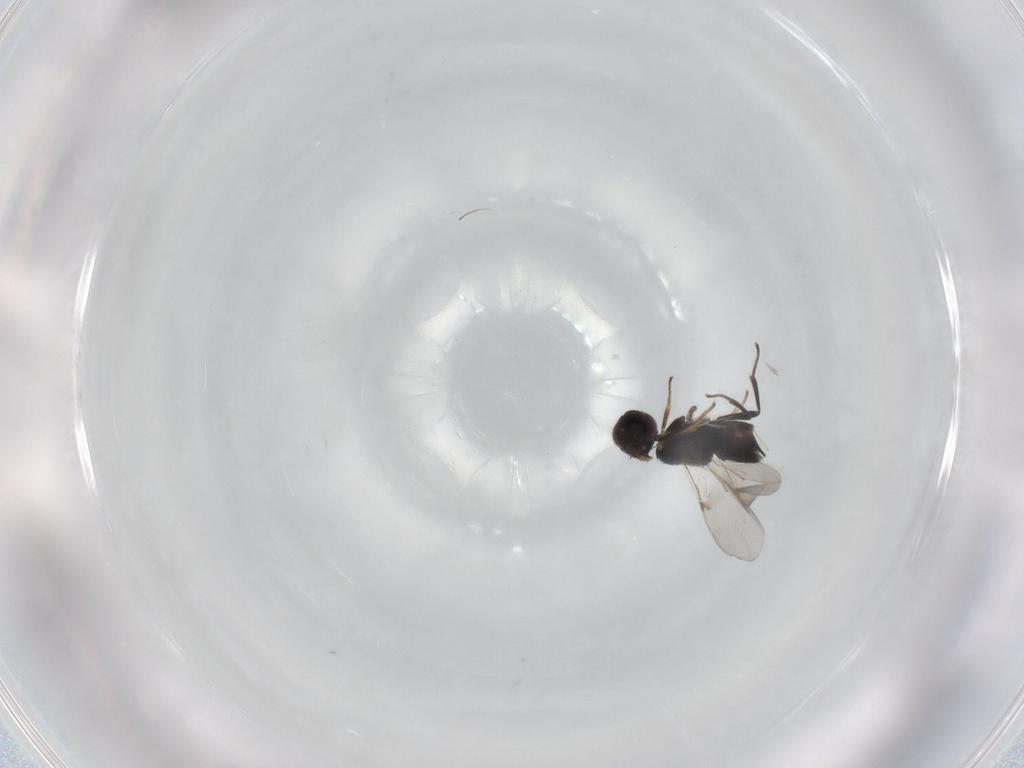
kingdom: Animalia
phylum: Arthropoda
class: Insecta
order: Hymenoptera
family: Encyrtidae
